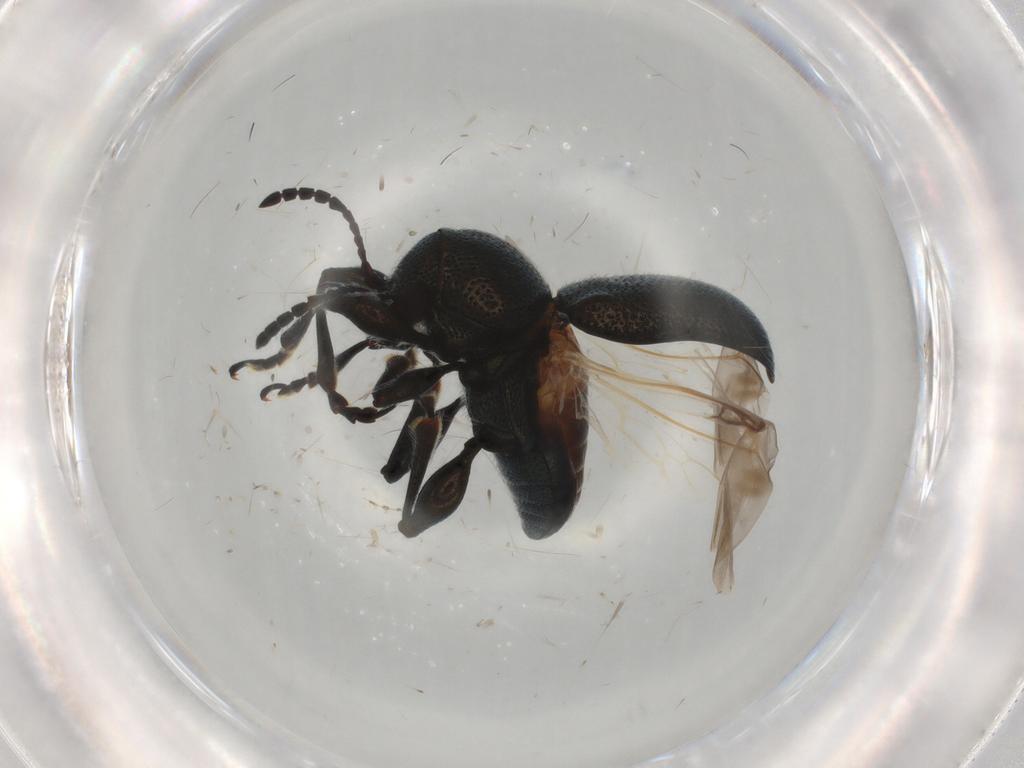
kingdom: Animalia
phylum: Arthropoda
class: Insecta
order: Coleoptera
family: Chrysomelidae
